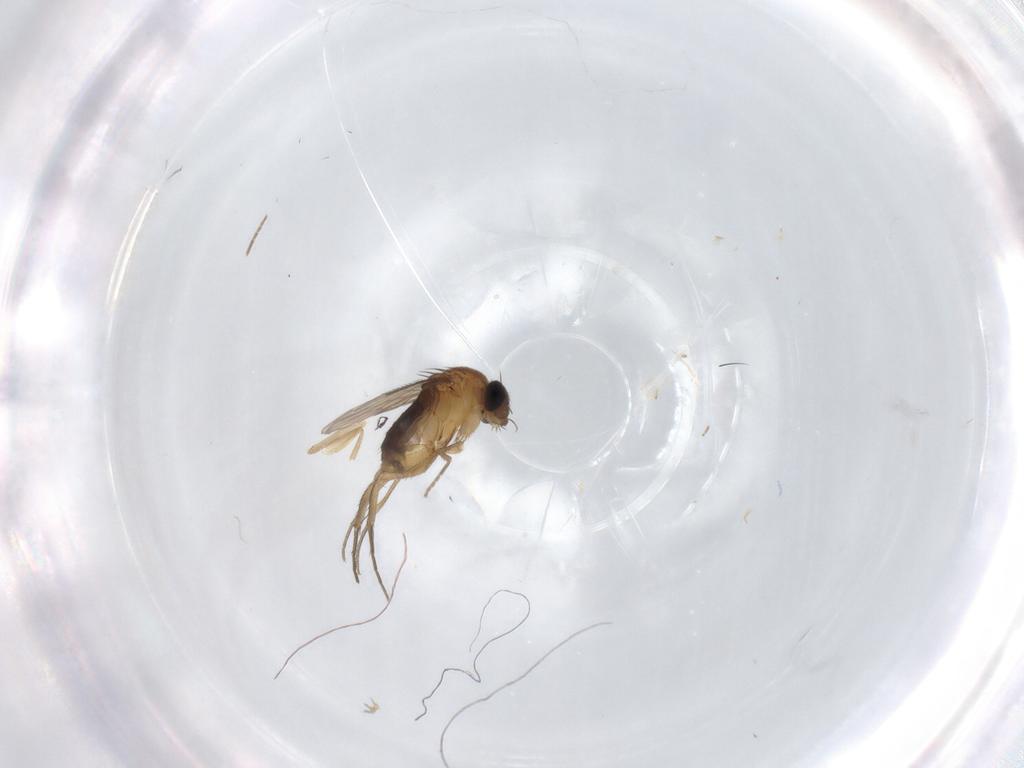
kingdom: Animalia
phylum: Arthropoda
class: Insecta
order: Diptera
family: Phoridae
